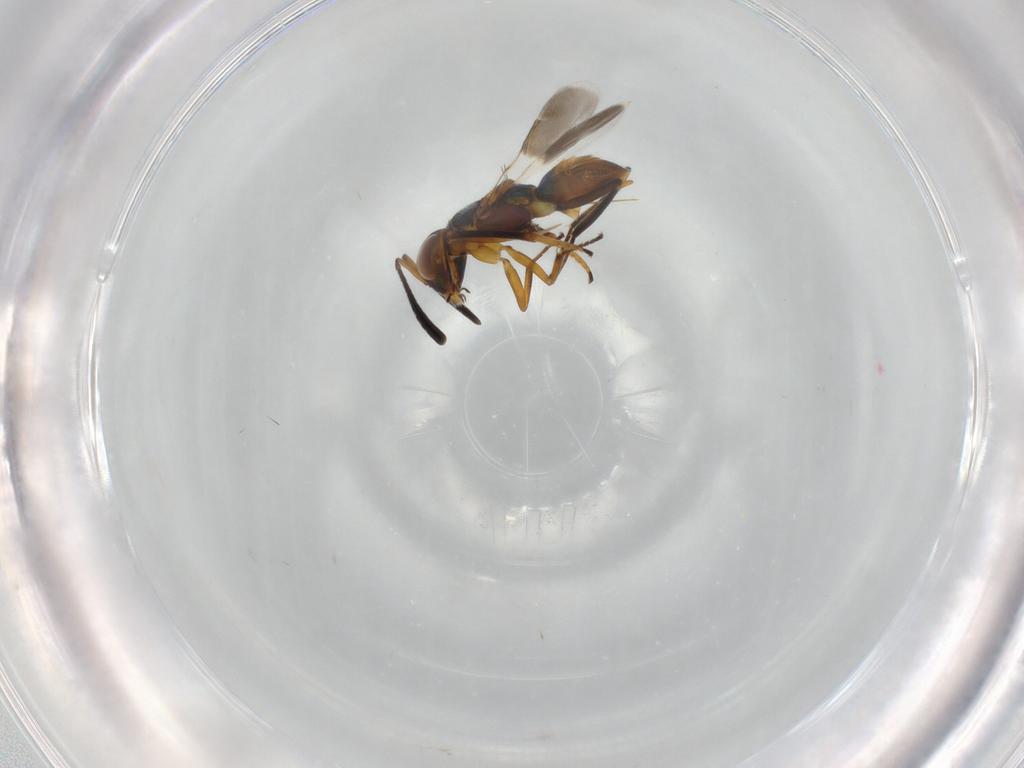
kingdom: Animalia
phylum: Arthropoda
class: Insecta
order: Hymenoptera
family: Encyrtidae
